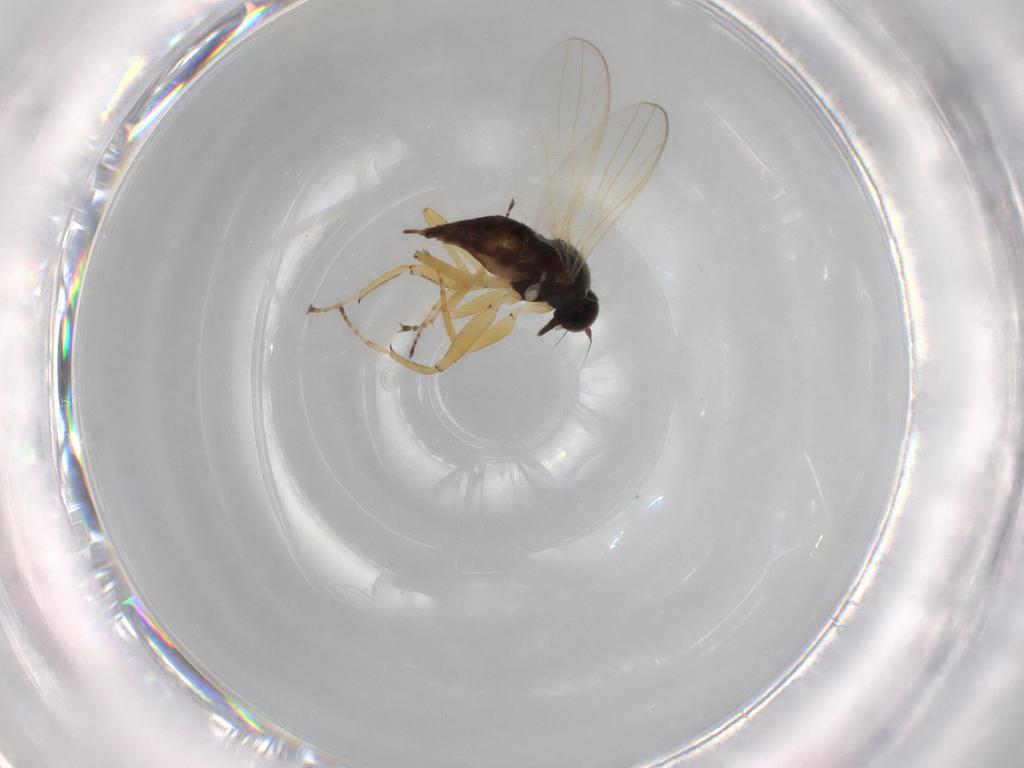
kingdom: Animalia
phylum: Arthropoda
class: Insecta
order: Diptera
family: Hybotidae
